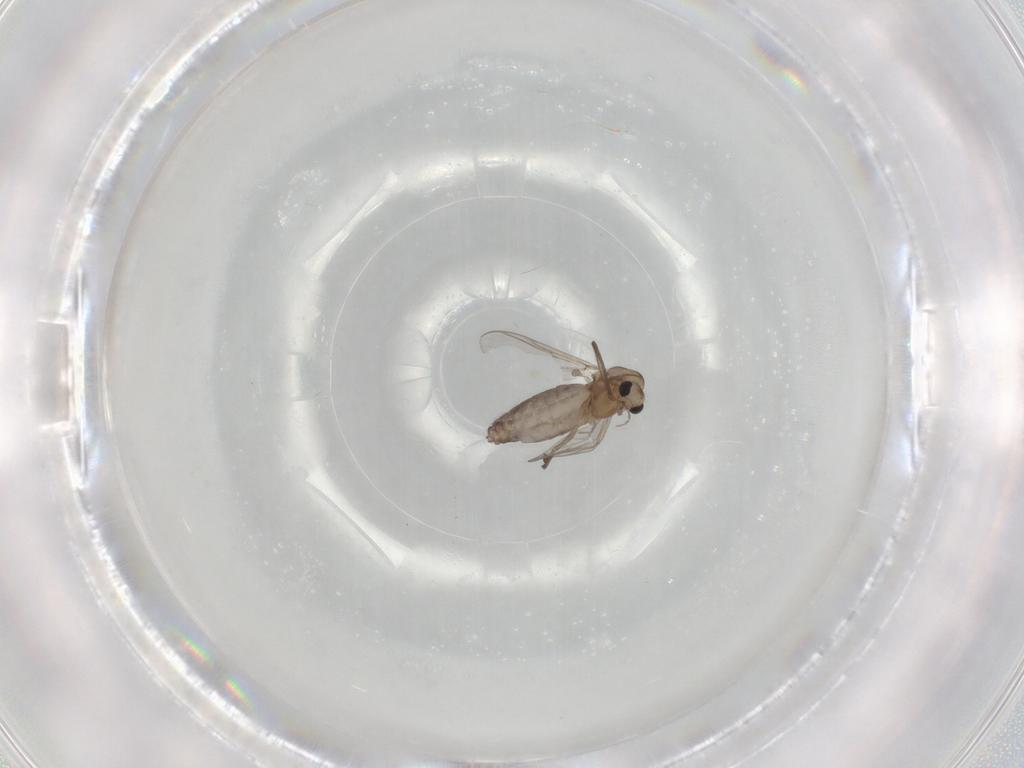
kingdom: Animalia
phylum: Arthropoda
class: Insecta
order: Diptera
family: Chironomidae
